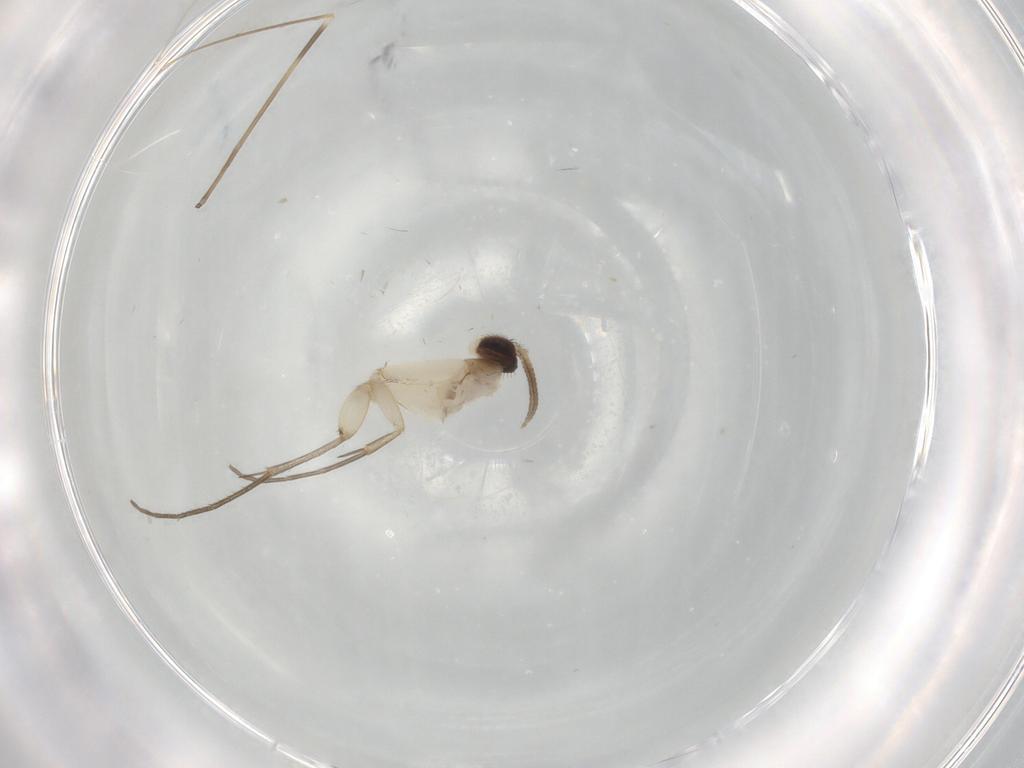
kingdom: Animalia
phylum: Arthropoda
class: Insecta
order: Diptera
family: Mycetophilidae
